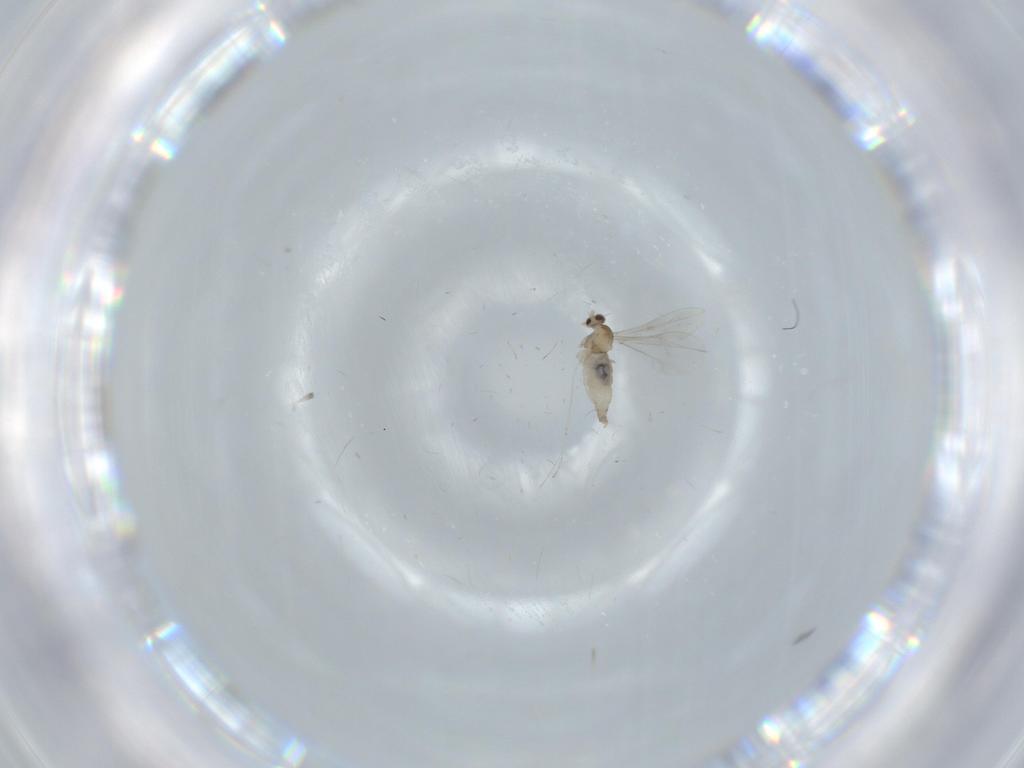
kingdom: Animalia
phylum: Arthropoda
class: Insecta
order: Diptera
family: Cecidomyiidae
